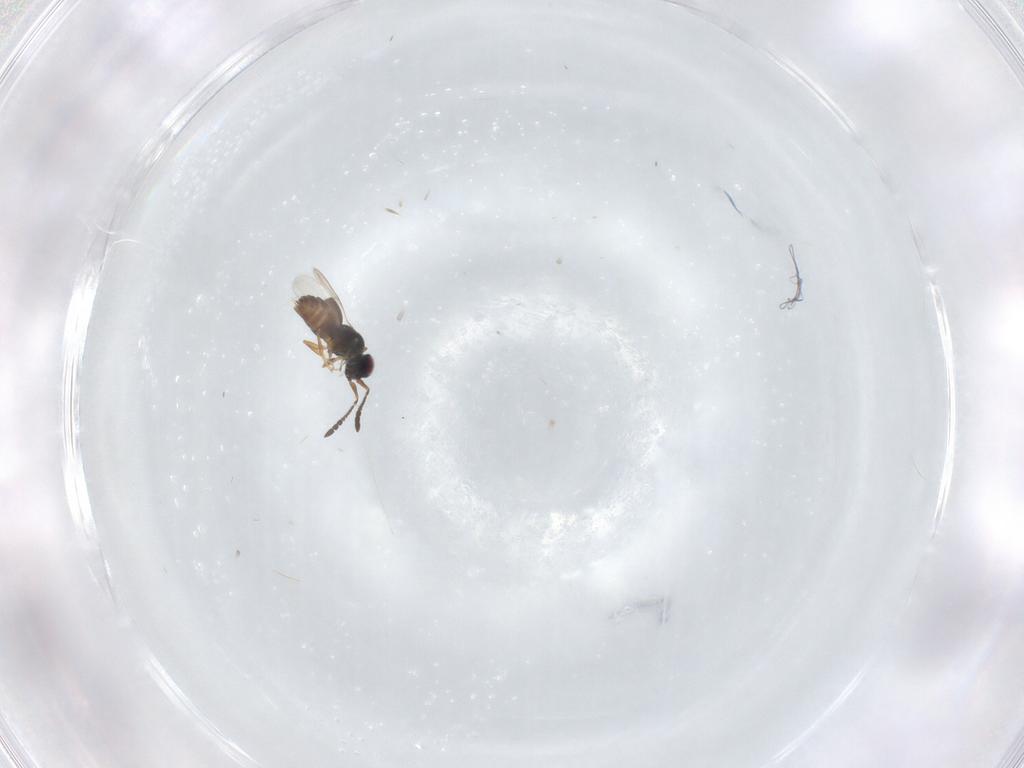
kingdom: Animalia
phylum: Arthropoda
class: Insecta
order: Hymenoptera
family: Ceraphronidae
